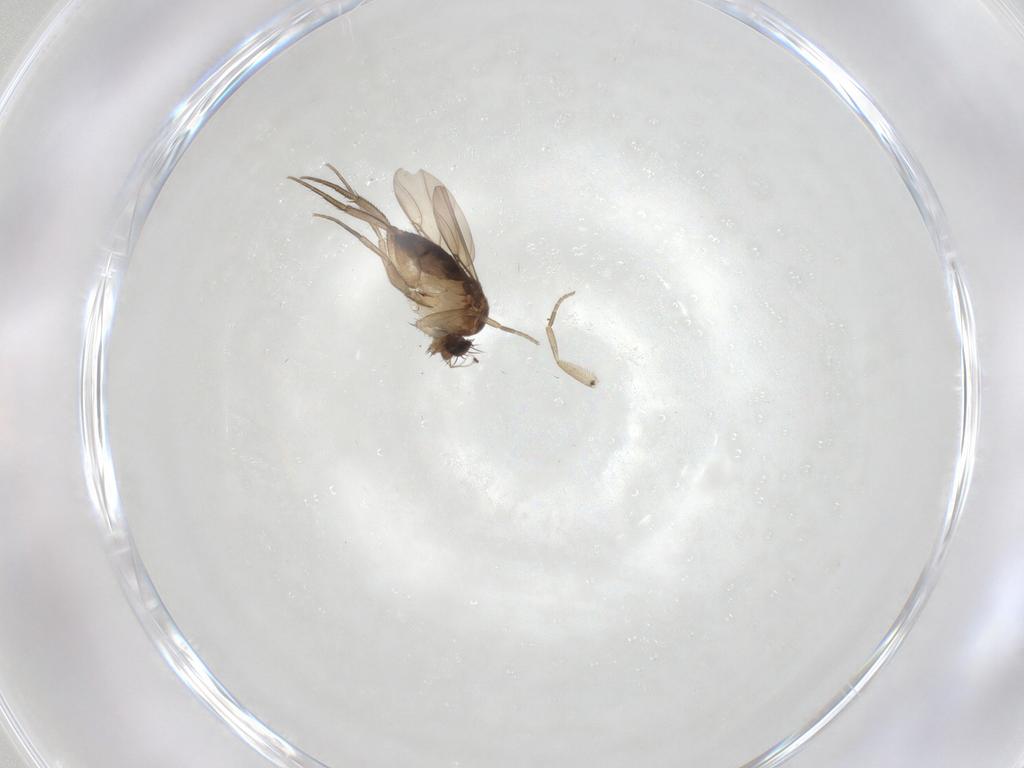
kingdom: Animalia
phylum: Arthropoda
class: Insecta
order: Diptera
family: Phoridae
